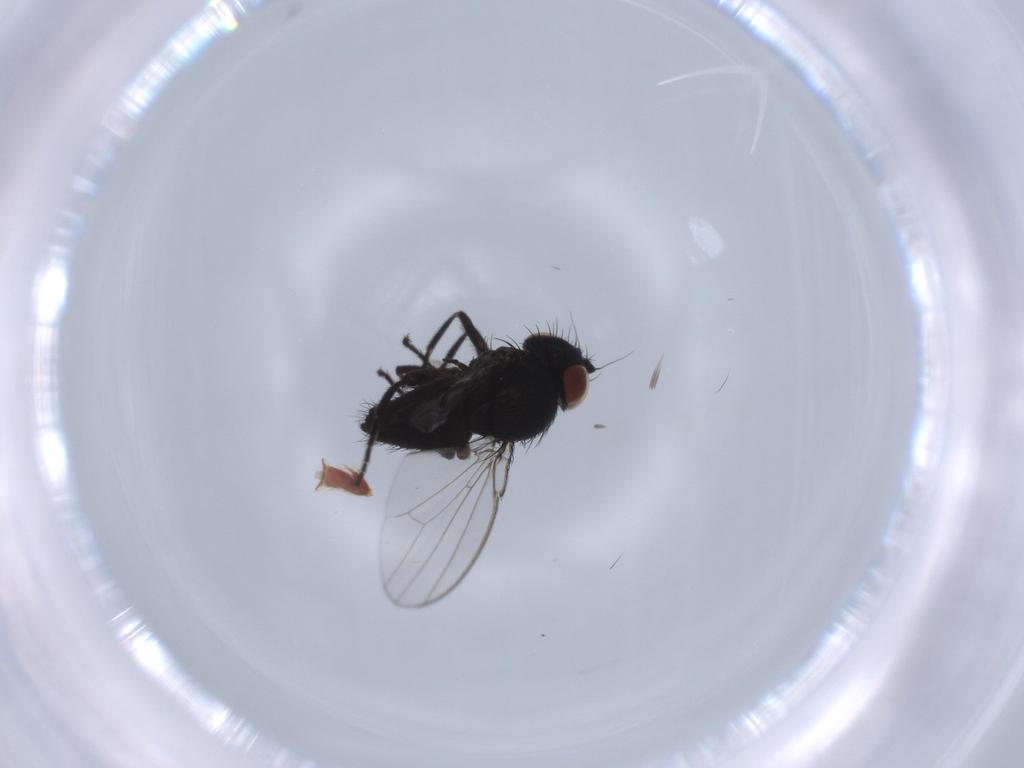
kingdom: Animalia
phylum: Arthropoda
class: Insecta
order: Diptera
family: Milichiidae
